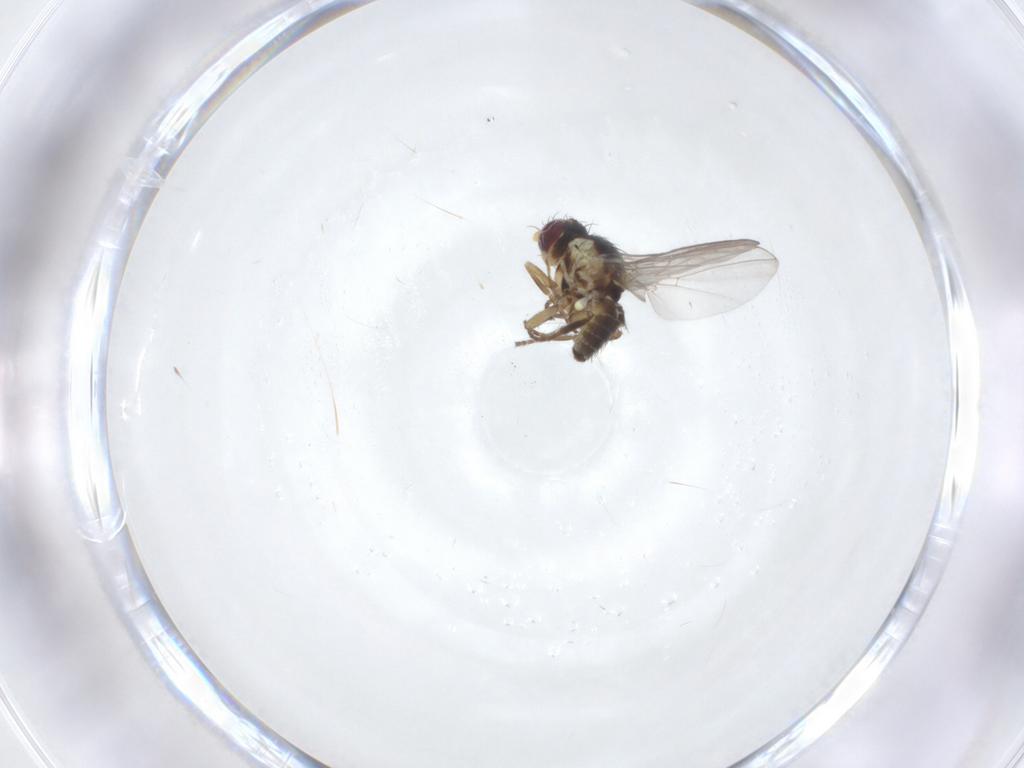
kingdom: Animalia
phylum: Arthropoda
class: Insecta
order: Diptera
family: Agromyzidae
